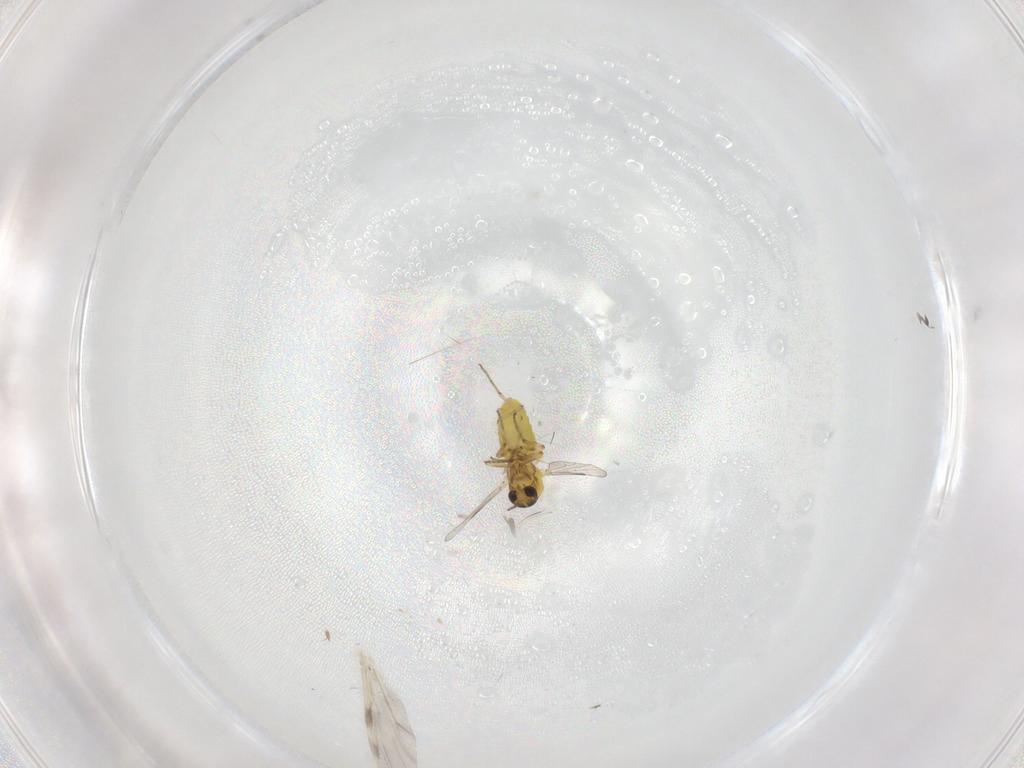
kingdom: Animalia
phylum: Arthropoda
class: Insecta
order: Diptera
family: Ceratopogonidae
